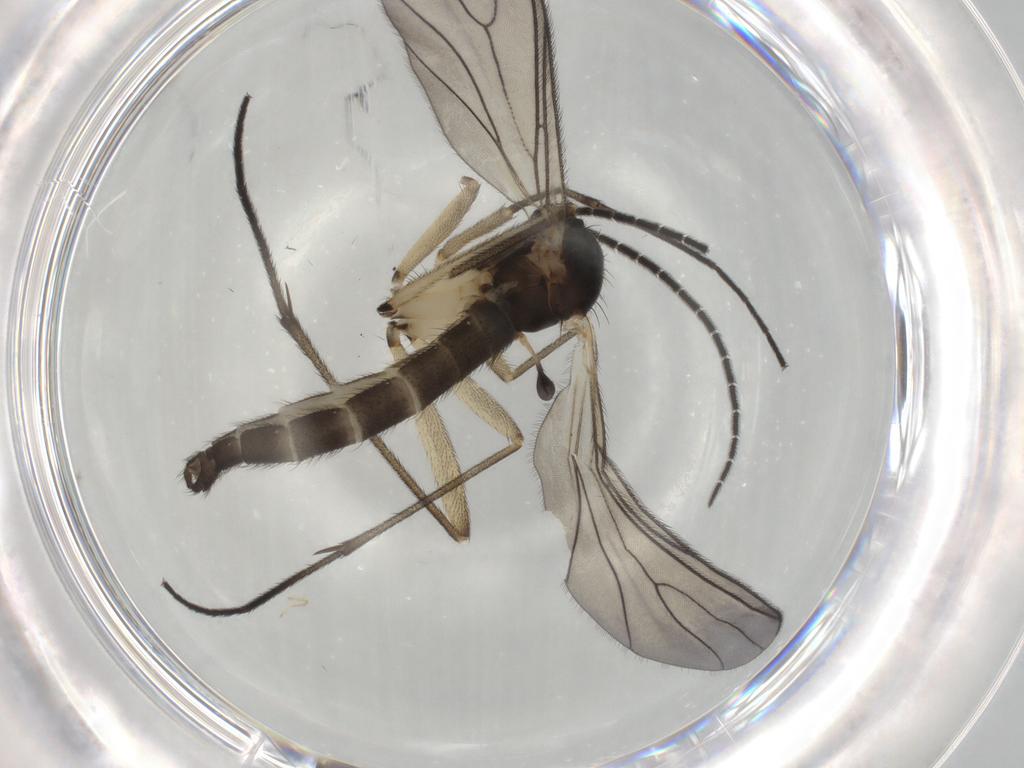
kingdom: Animalia
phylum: Arthropoda
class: Insecta
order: Diptera
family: Sciaridae
